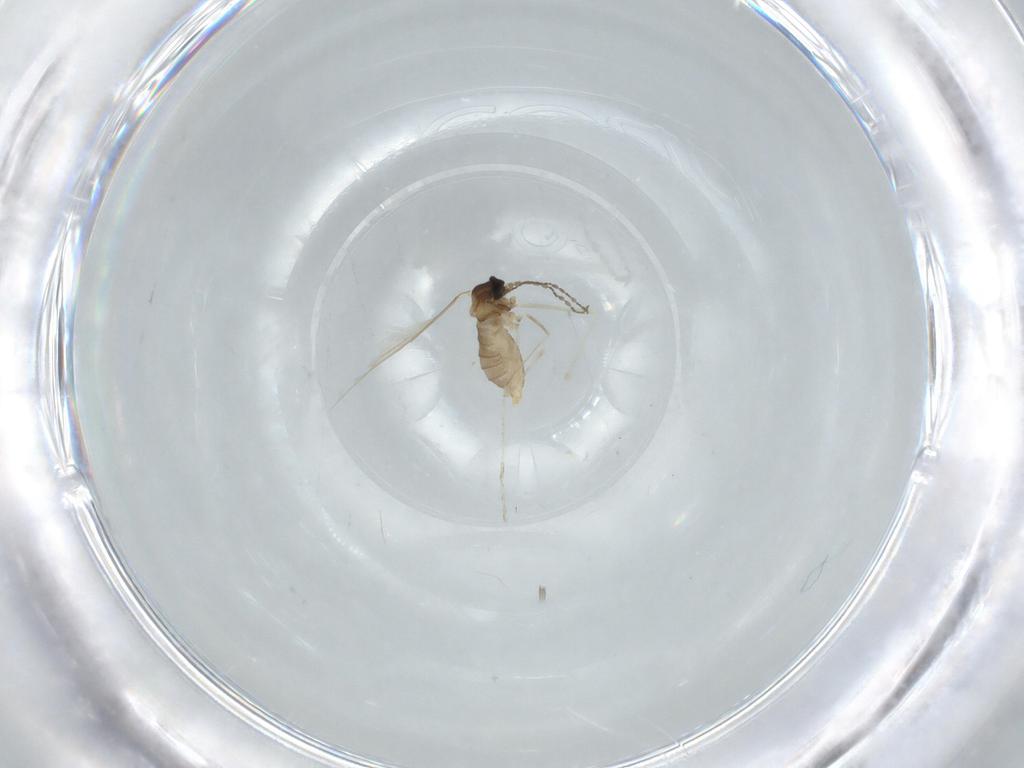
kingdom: Animalia
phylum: Arthropoda
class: Insecta
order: Diptera
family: Cecidomyiidae
